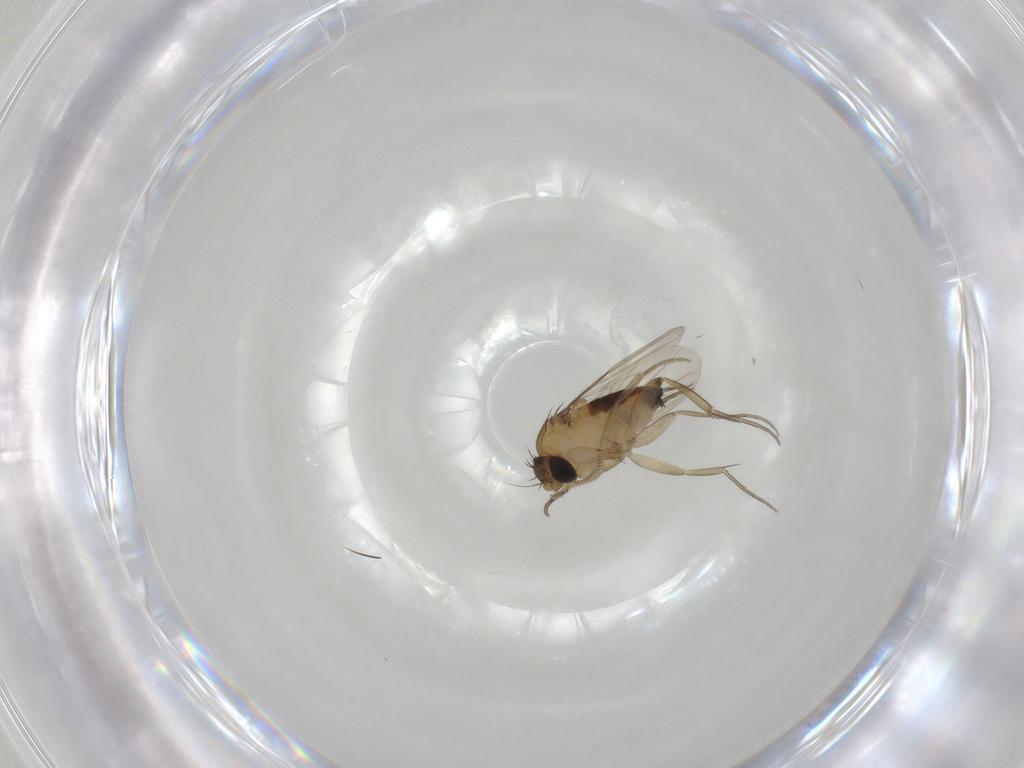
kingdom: Animalia
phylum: Arthropoda
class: Insecta
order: Diptera
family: Phoridae
